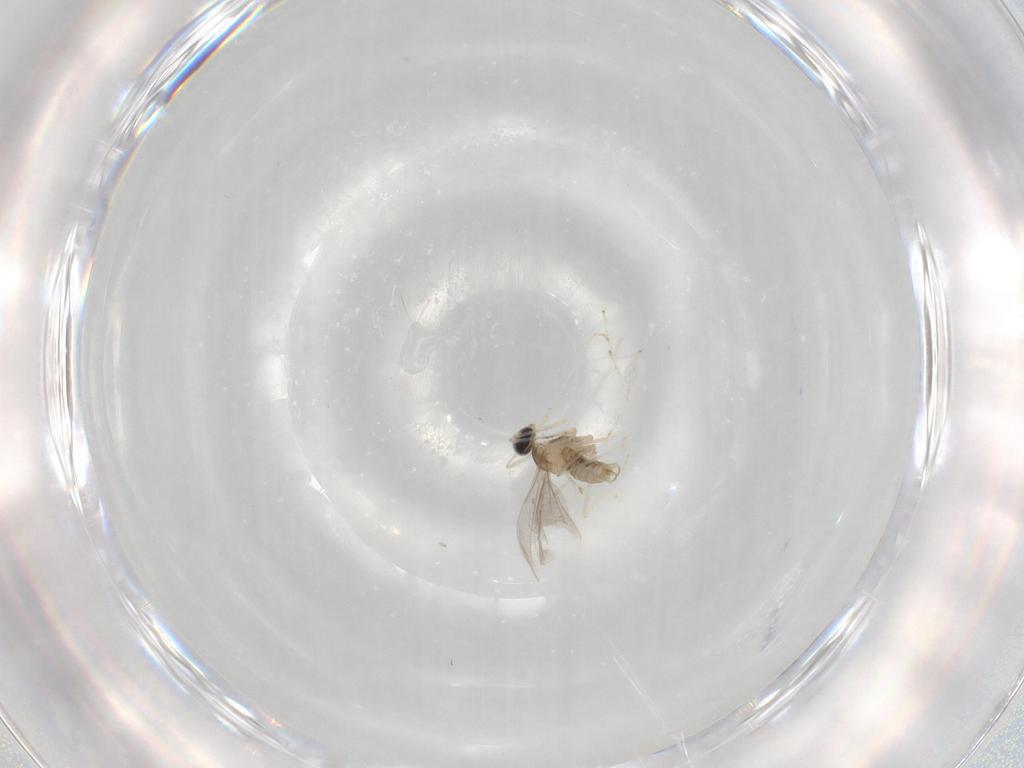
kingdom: Animalia
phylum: Arthropoda
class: Insecta
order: Diptera
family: Cecidomyiidae
